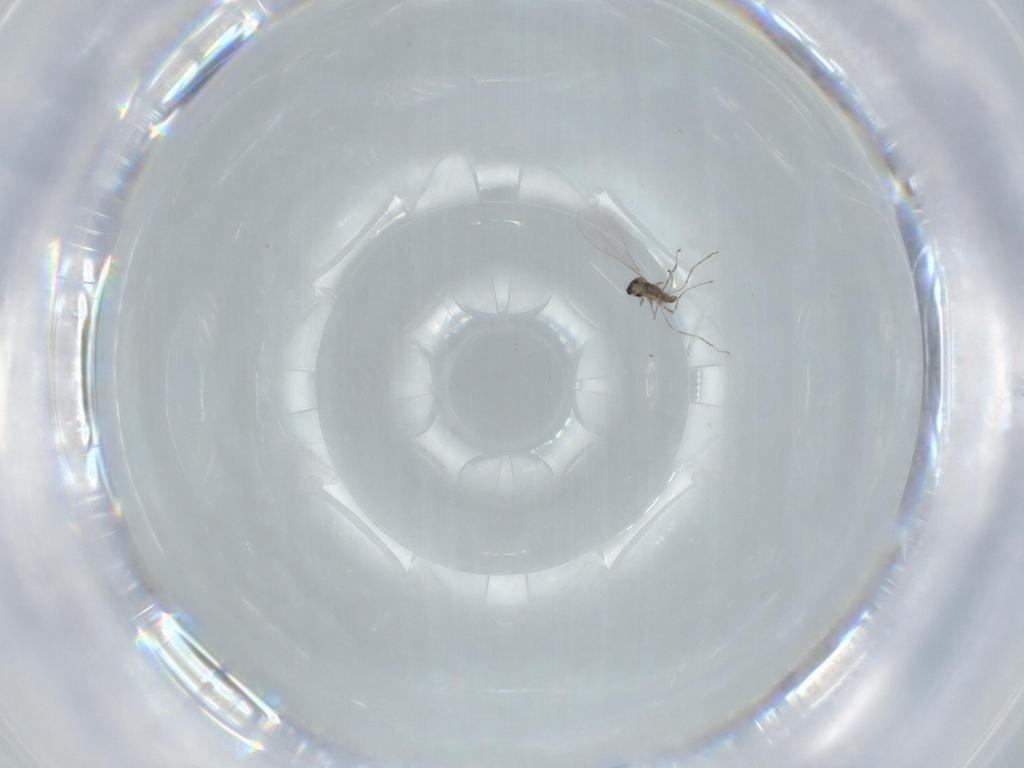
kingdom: Animalia
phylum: Arthropoda
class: Insecta
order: Diptera
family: Cecidomyiidae
